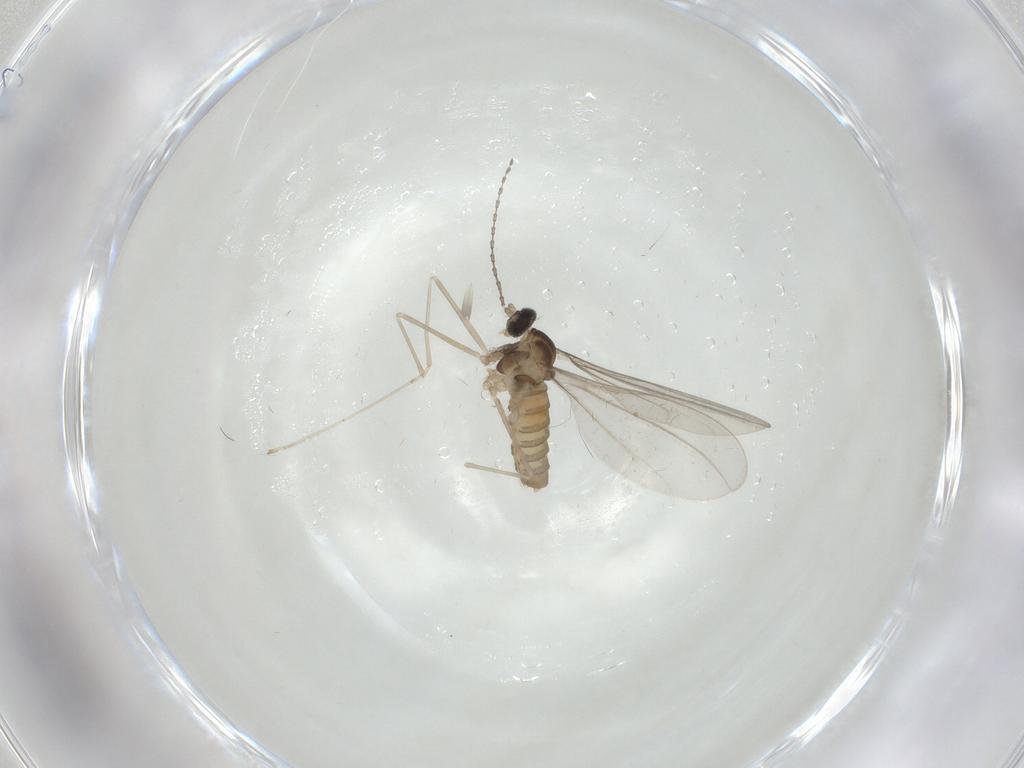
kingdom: Animalia
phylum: Arthropoda
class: Insecta
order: Diptera
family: Cecidomyiidae
